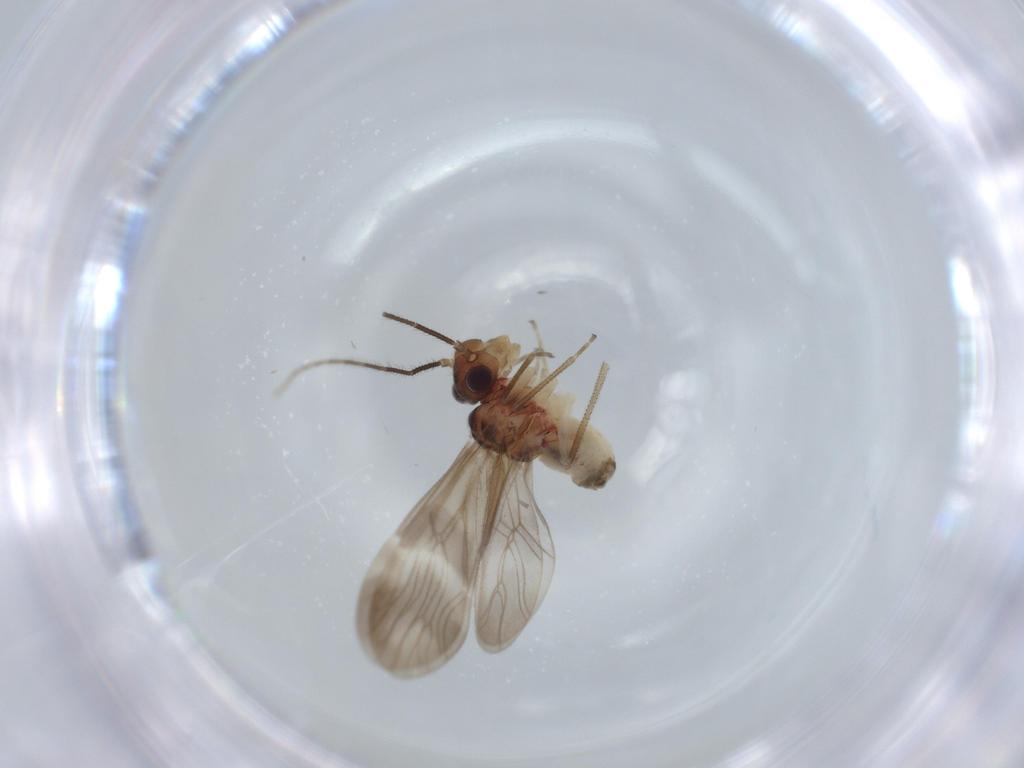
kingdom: Animalia
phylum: Arthropoda
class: Insecta
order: Psocodea
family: Amphipsocidae
